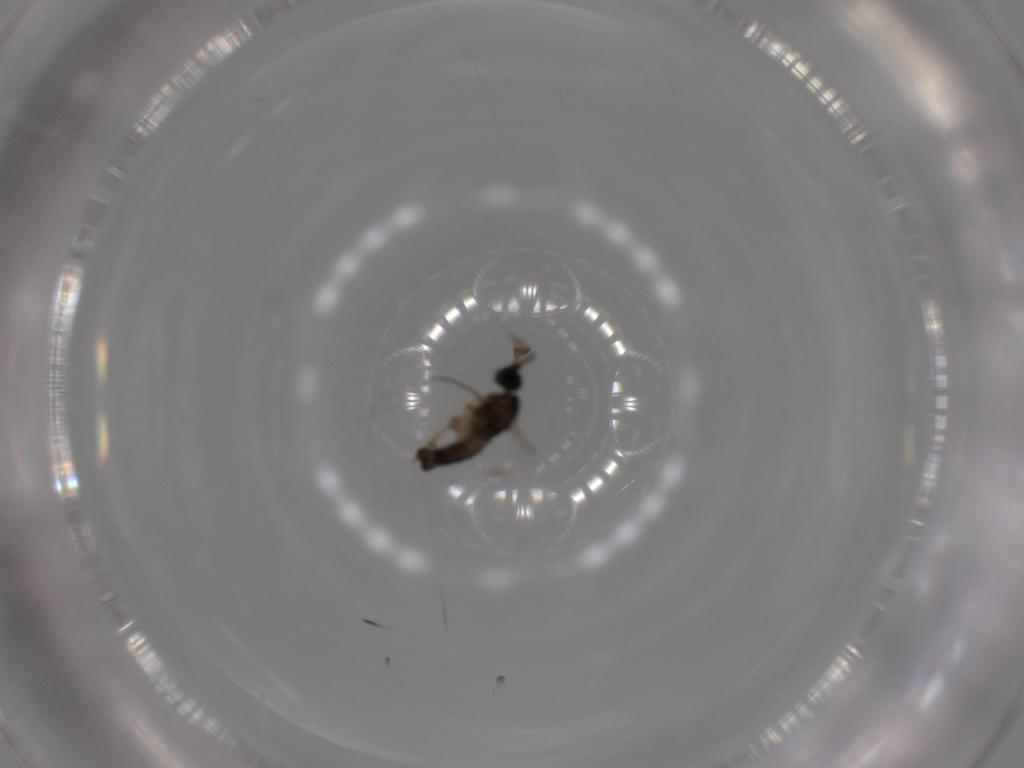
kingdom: Animalia
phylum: Arthropoda
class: Insecta
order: Diptera
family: Sciaridae
